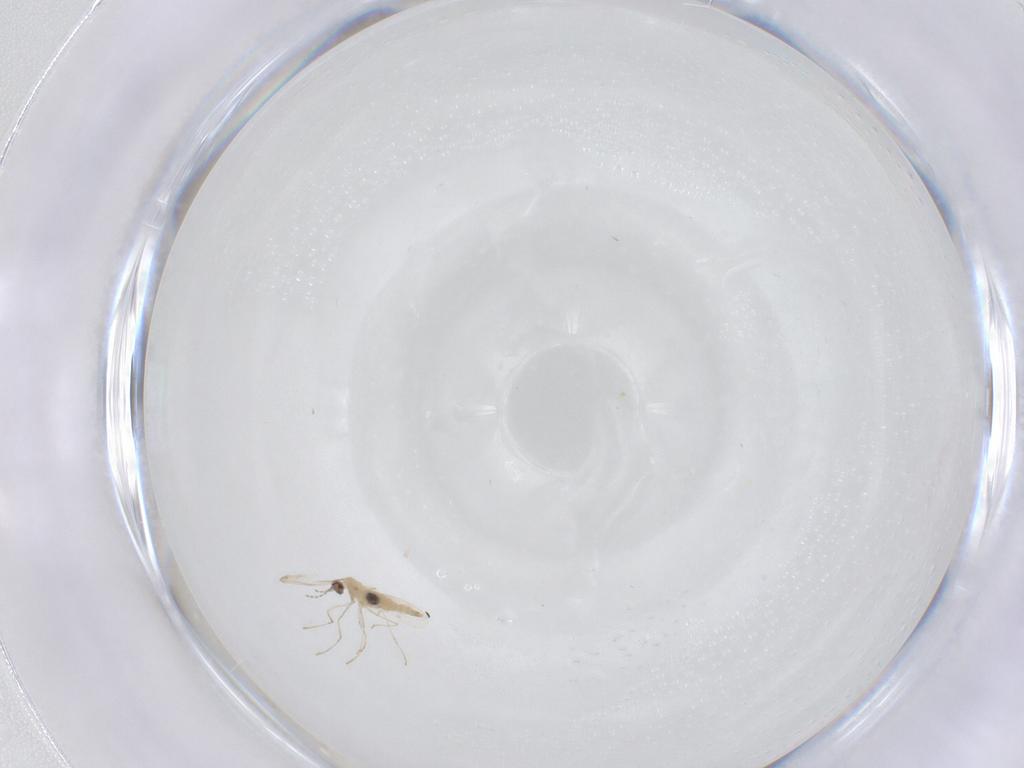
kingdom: Animalia
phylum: Arthropoda
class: Insecta
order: Diptera
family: Cecidomyiidae
